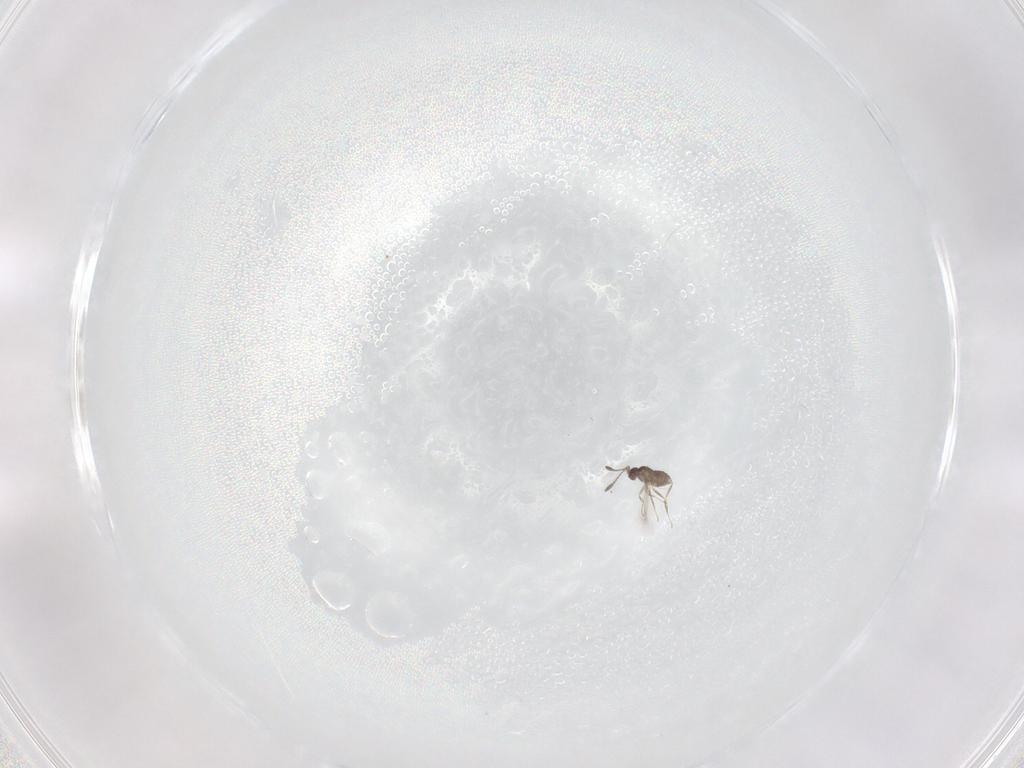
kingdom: Animalia
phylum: Arthropoda
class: Insecta
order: Hymenoptera
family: Mymaridae
